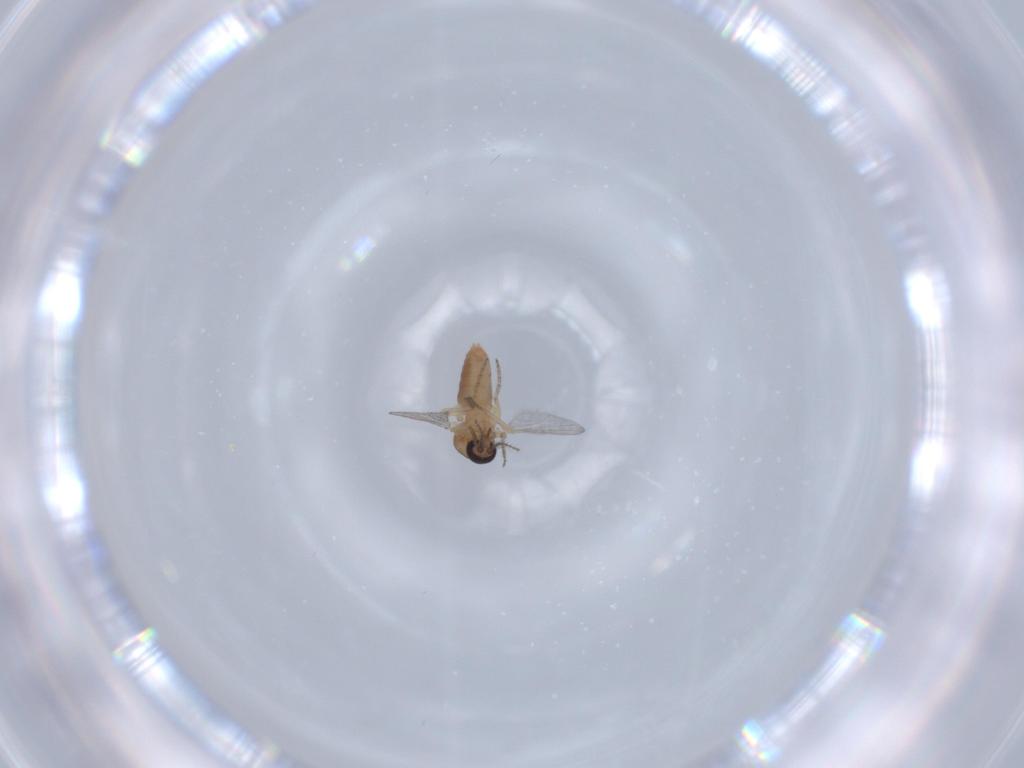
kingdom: Animalia
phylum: Arthropoda
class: Insecta
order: Diptera
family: Chloropidae
